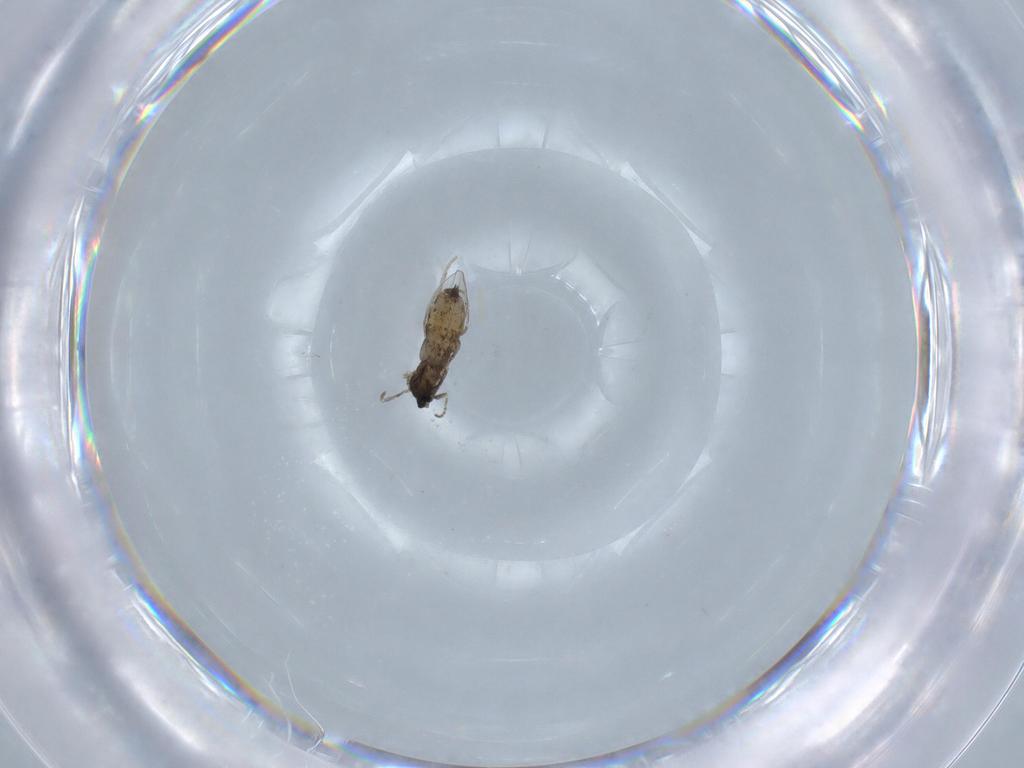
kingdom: Animalia
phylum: Arthropoda
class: Insecta
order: Diptera
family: Cecidomyiidae
